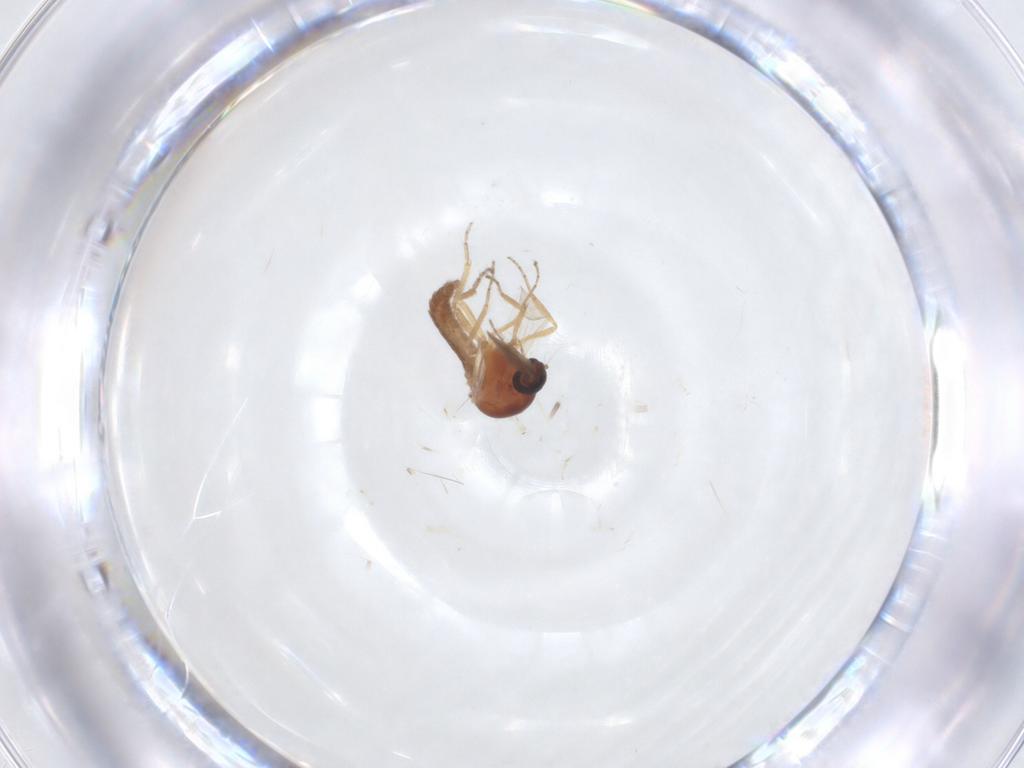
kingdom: Animalia
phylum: Arthropoda
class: Insecta
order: Diptera
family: Ceratopogonidae
